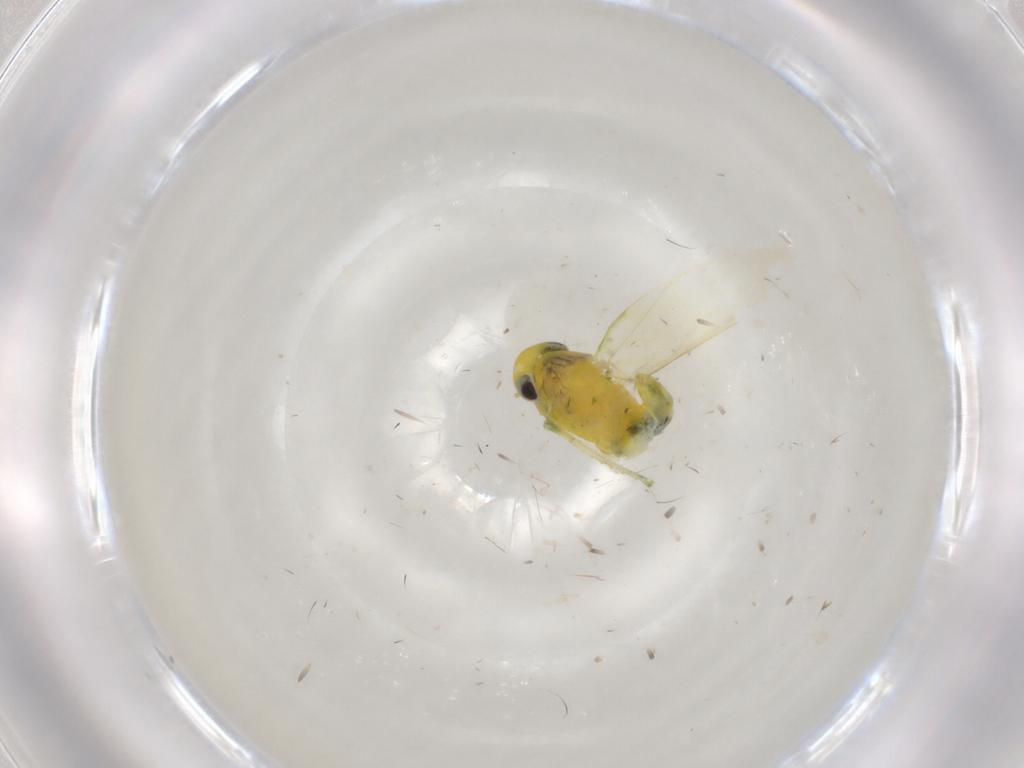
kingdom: Animalia
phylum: Arthropoda
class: Insecta
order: Hemiptera
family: Cicadellidae
